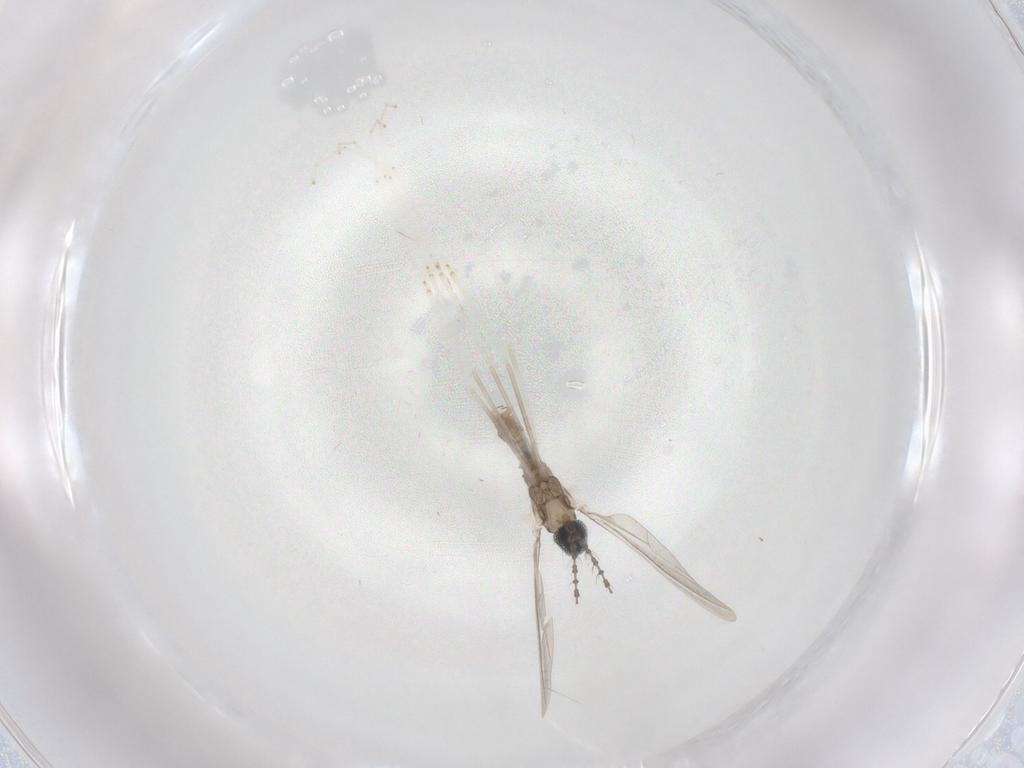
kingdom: Animalia
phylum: Arthropoda
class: Insecta
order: Diptera
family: Cecidomyiidae
